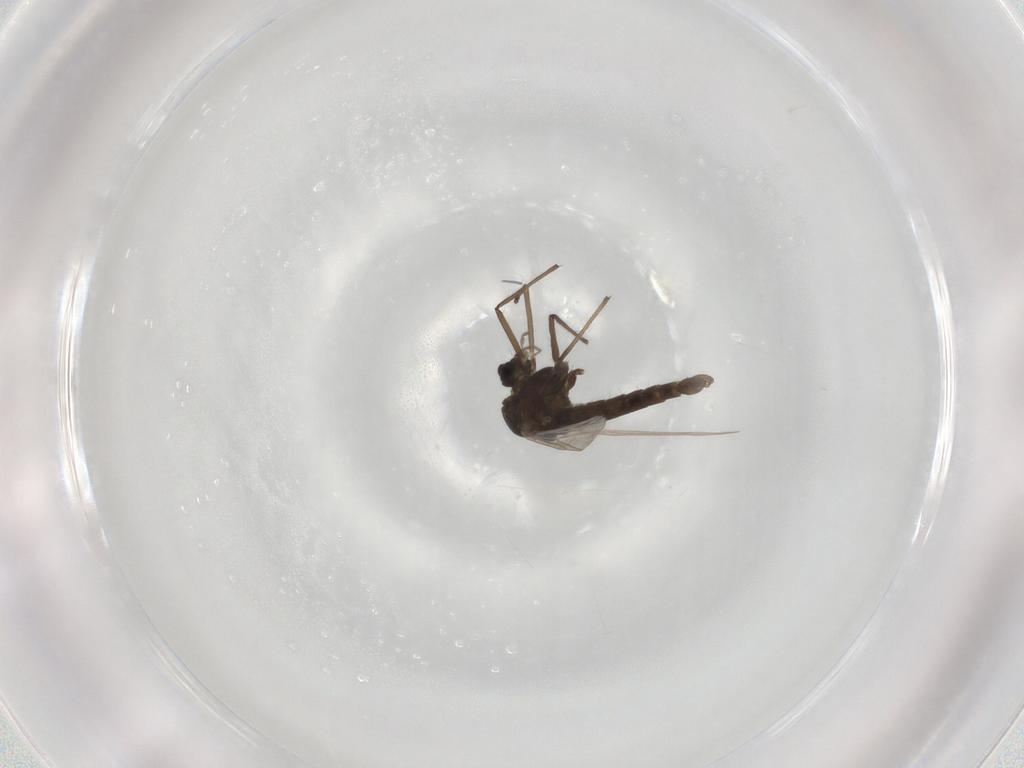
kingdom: Animalia
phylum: Arthropoda
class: Insecta
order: Diptera
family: Chironomidae
